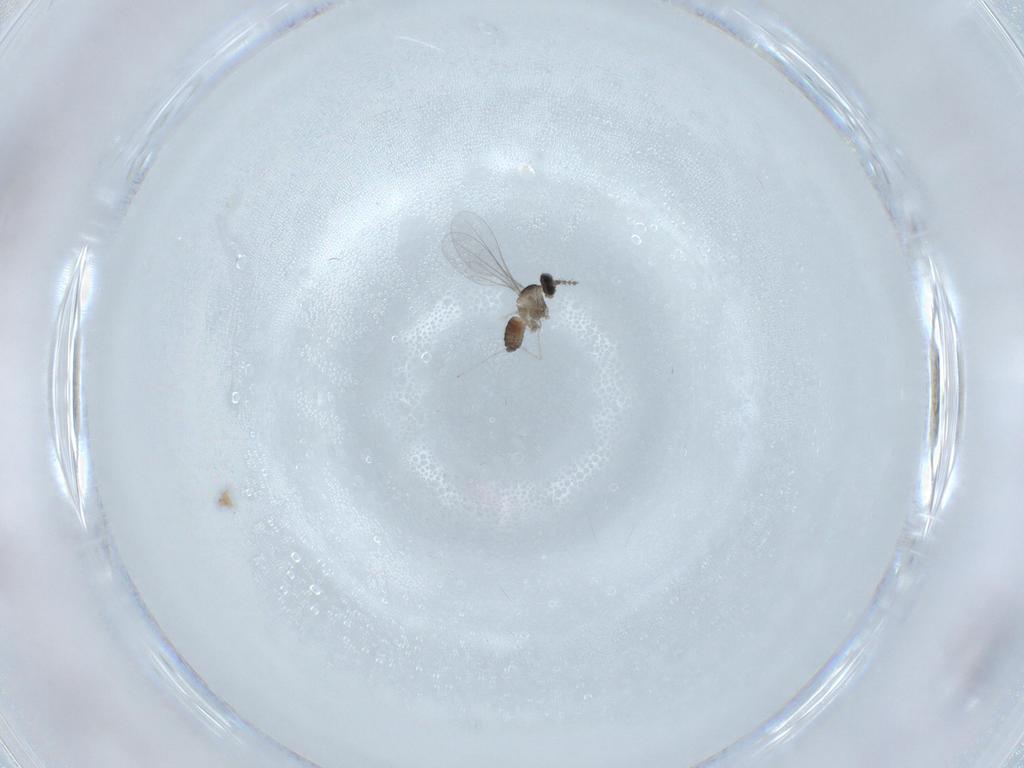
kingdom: Animalia
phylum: Arthropoda
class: Insecta
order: Diptera
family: Cecidomyiidae
